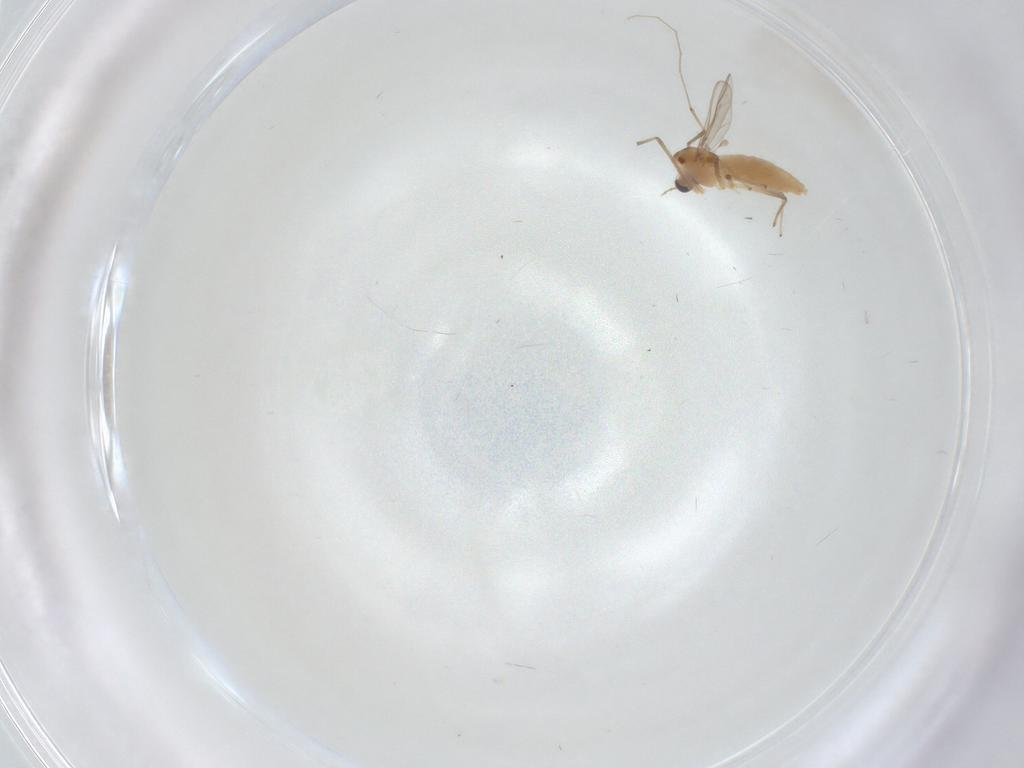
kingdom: Animalia
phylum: Arthropoda
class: Insecta
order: Diptera
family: Chironomidae
